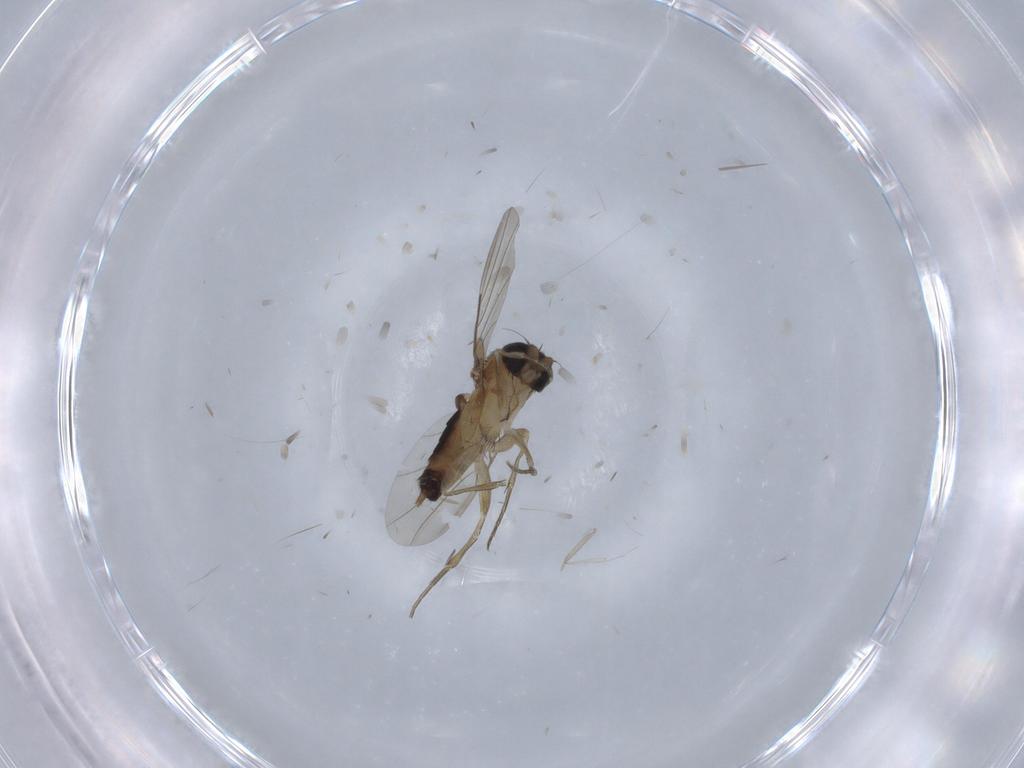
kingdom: Animalia
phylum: Arthropoda
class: Insecta
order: Diptera
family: Phoridae
